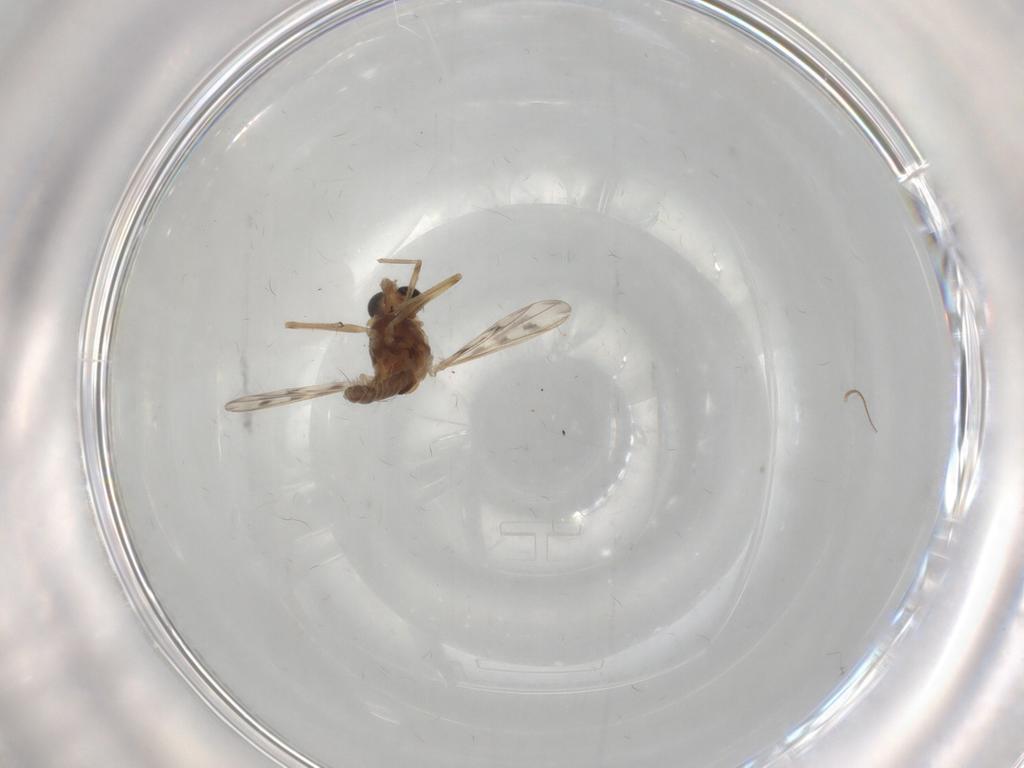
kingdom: Animalia
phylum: Arthropoda
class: Insecta
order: Diptera
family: Chironomidae
